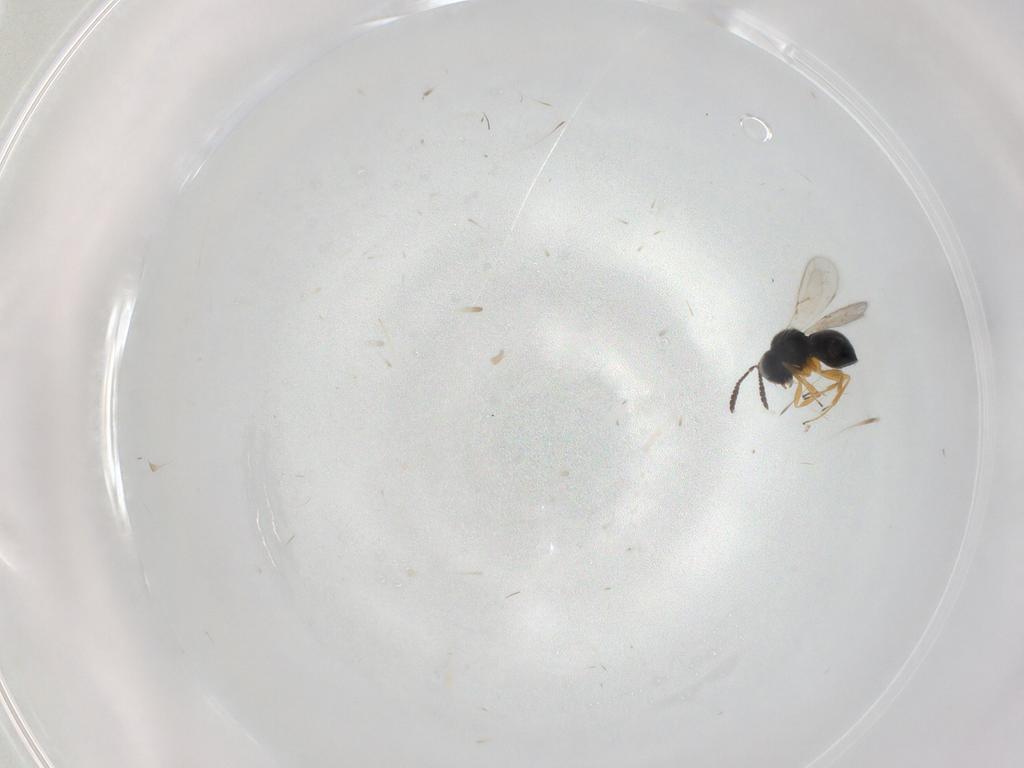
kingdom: Animalia
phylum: Arthropoda
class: Insecta
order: Hymenoptera
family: Scelionidae
